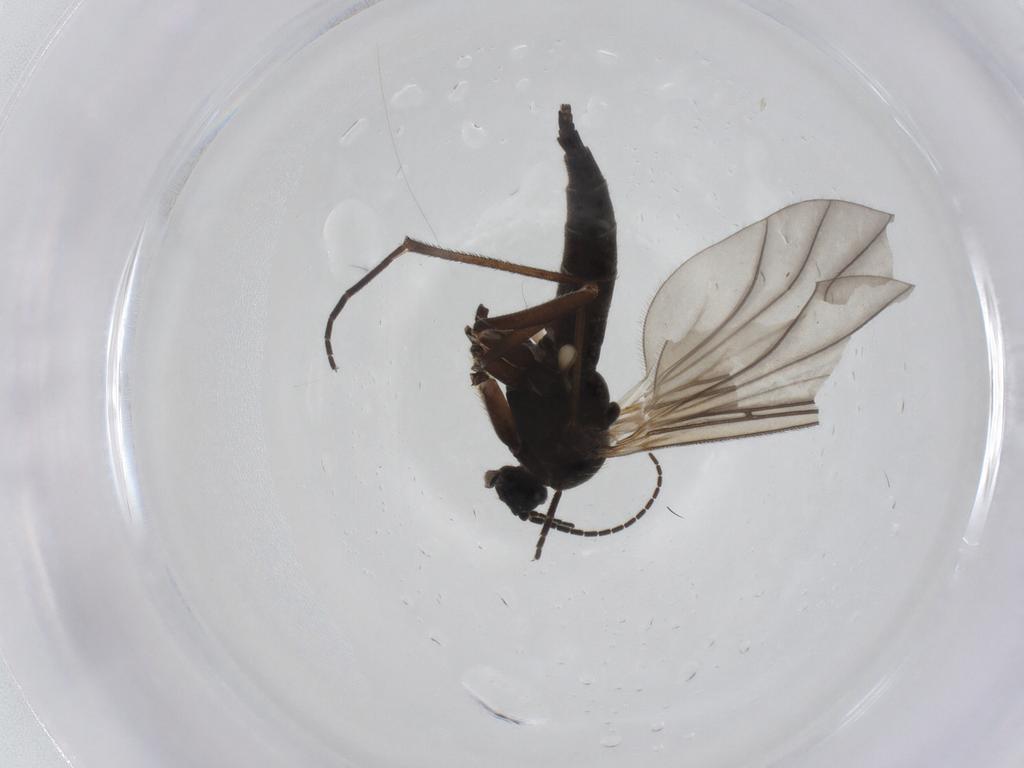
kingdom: Animalia
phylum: Arthropoda
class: Insecta
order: Diptera
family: Sciaridae
